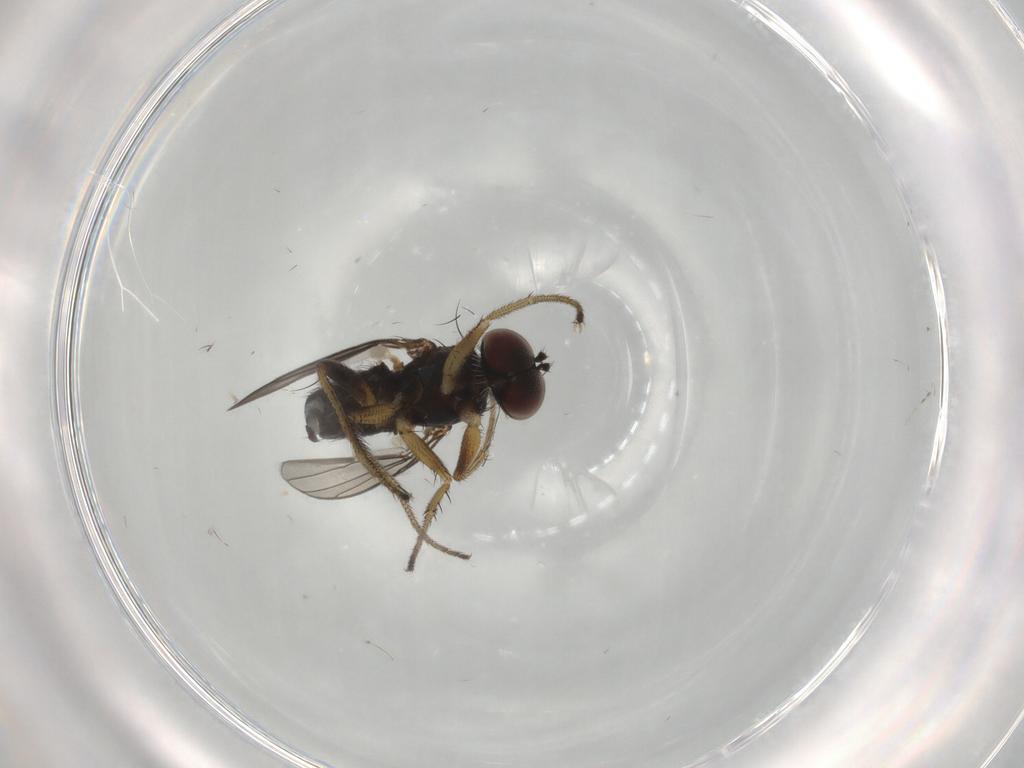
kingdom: Animalia
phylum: Arthropoda
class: Insecta
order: Diptera
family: Dolichopodidae
